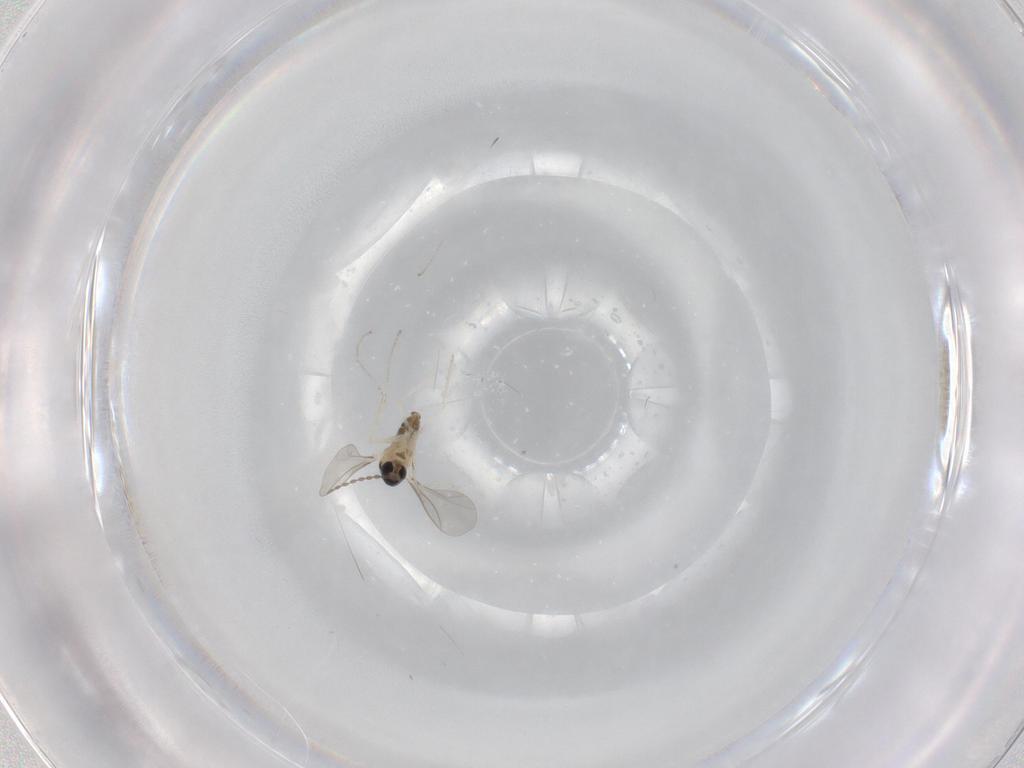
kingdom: Animalia
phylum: Arthropoda
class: Insecta
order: Diptera
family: Cecidomyiidae
